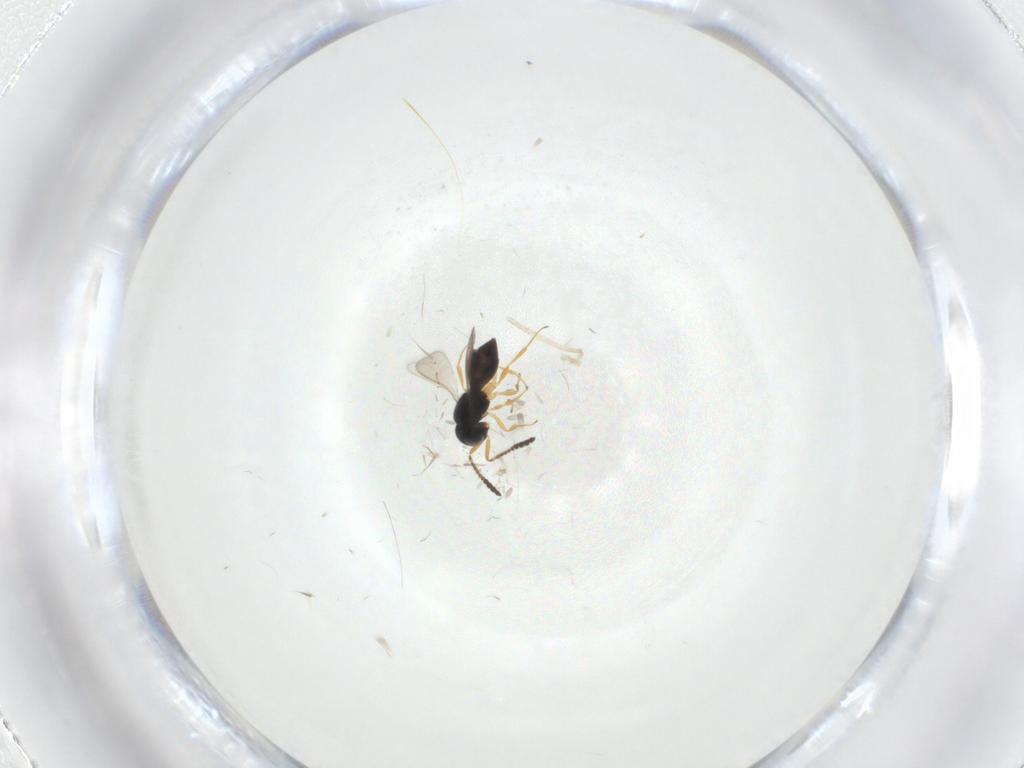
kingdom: Animalia
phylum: Arthropoda
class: Insecta
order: Hymenoptera
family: Scelionidae
